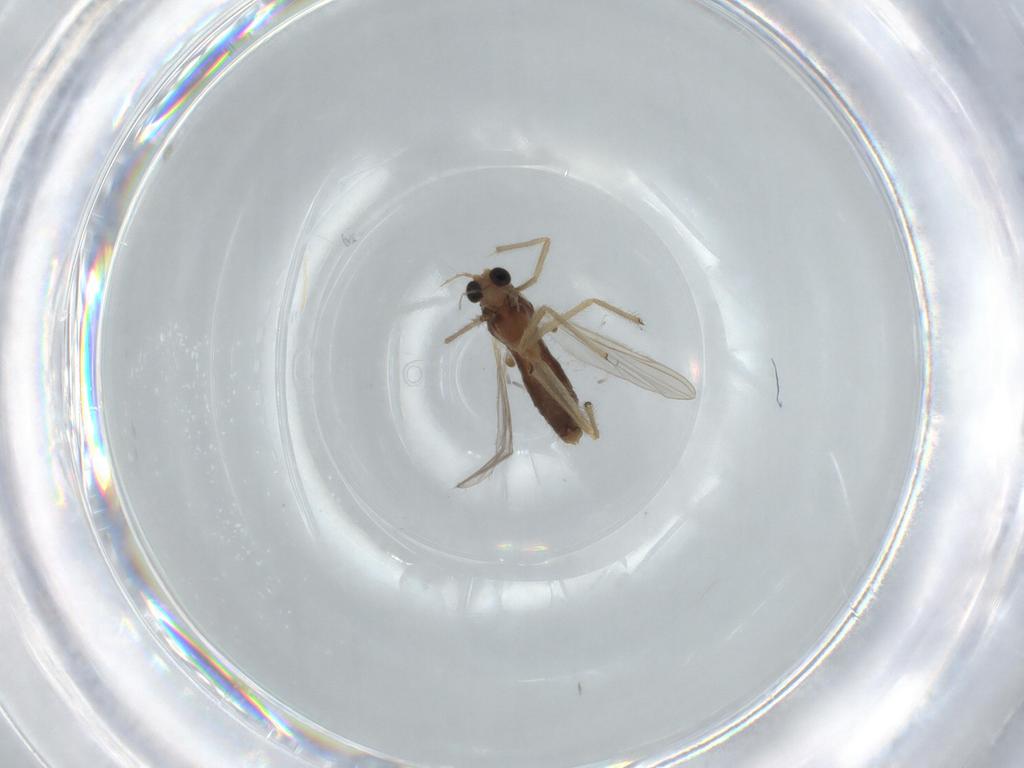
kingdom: Animalia
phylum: Arthropoda
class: Insecta
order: Diptera
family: Chironomidae
